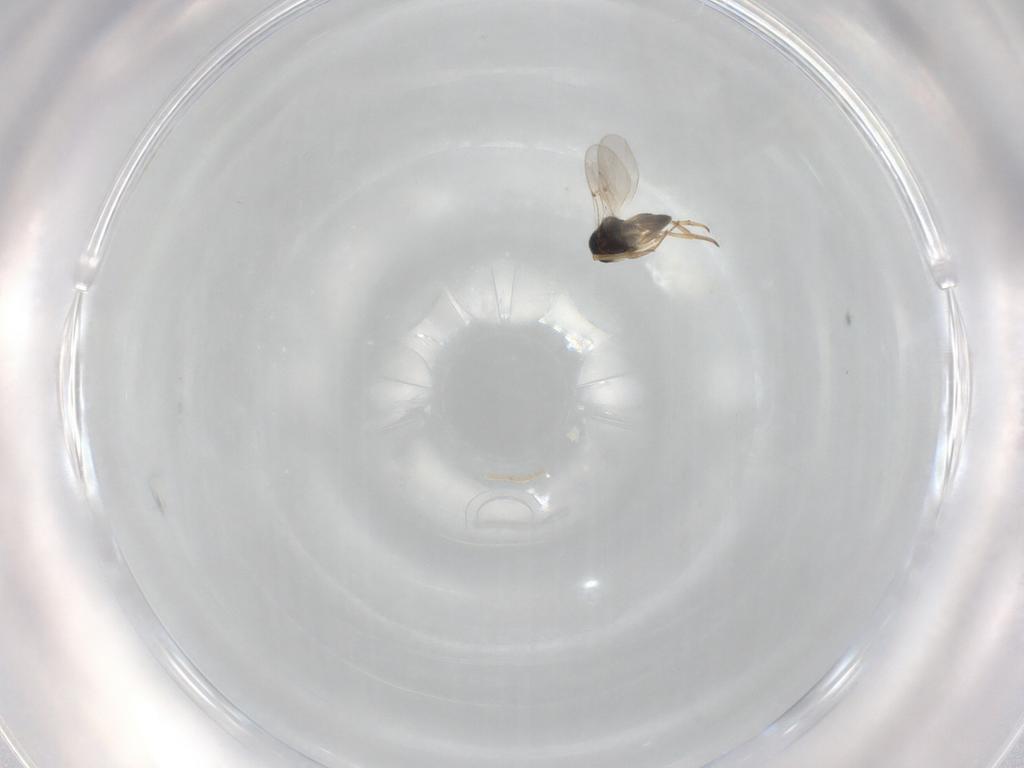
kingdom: Animalia
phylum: Arthropoda
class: Insecta
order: Hymenoptera
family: Encyrtidae
